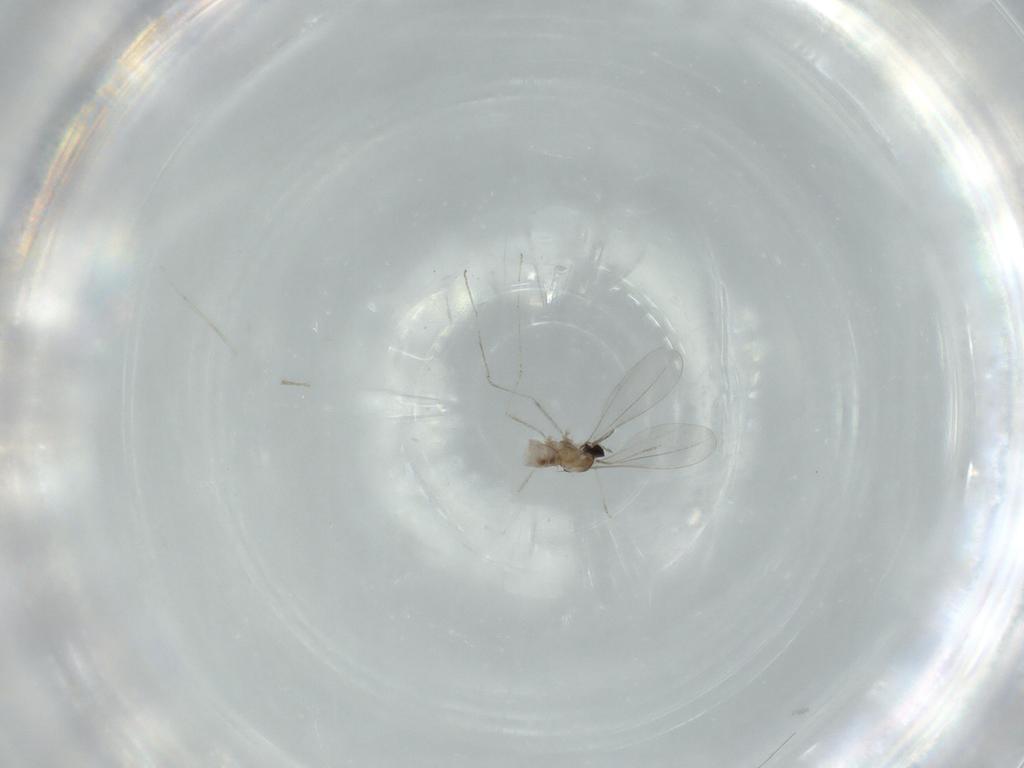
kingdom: Animalia
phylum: Arthropoda
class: Insecta
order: Diptera
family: Cecidomyiidae
